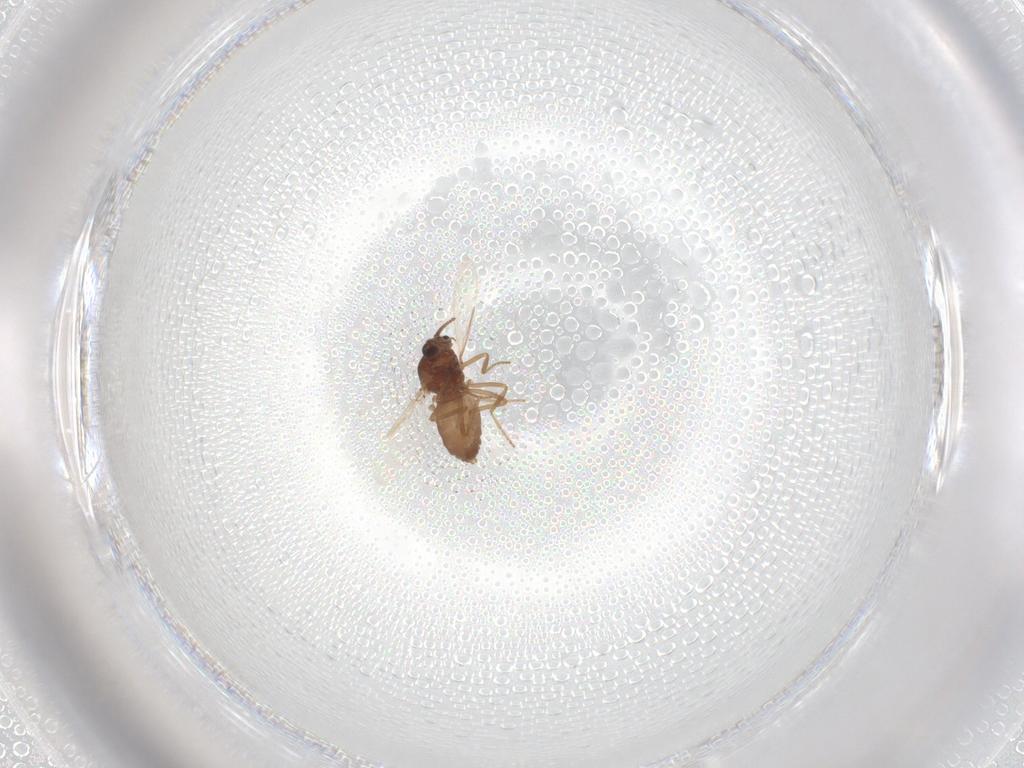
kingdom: Animalia
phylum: Arthropoda
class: Insecta
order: Diptera
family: Ceratopogonidae
